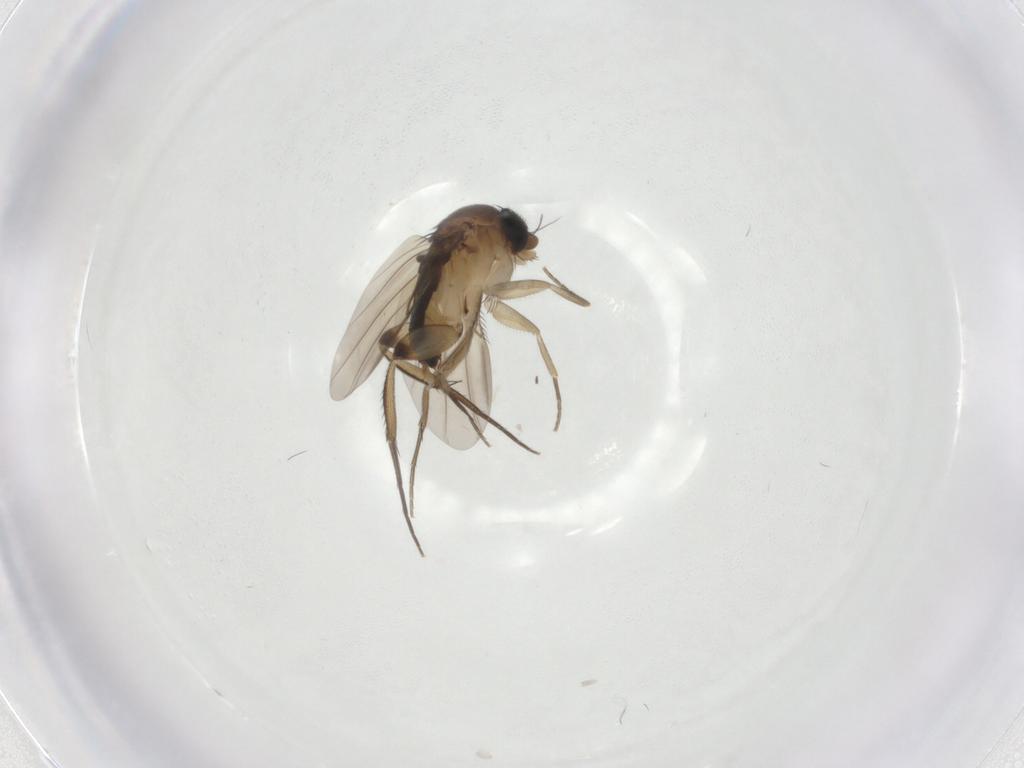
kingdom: Animalia
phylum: Arthropoda
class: Insecta
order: Diptera
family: Phoridae
